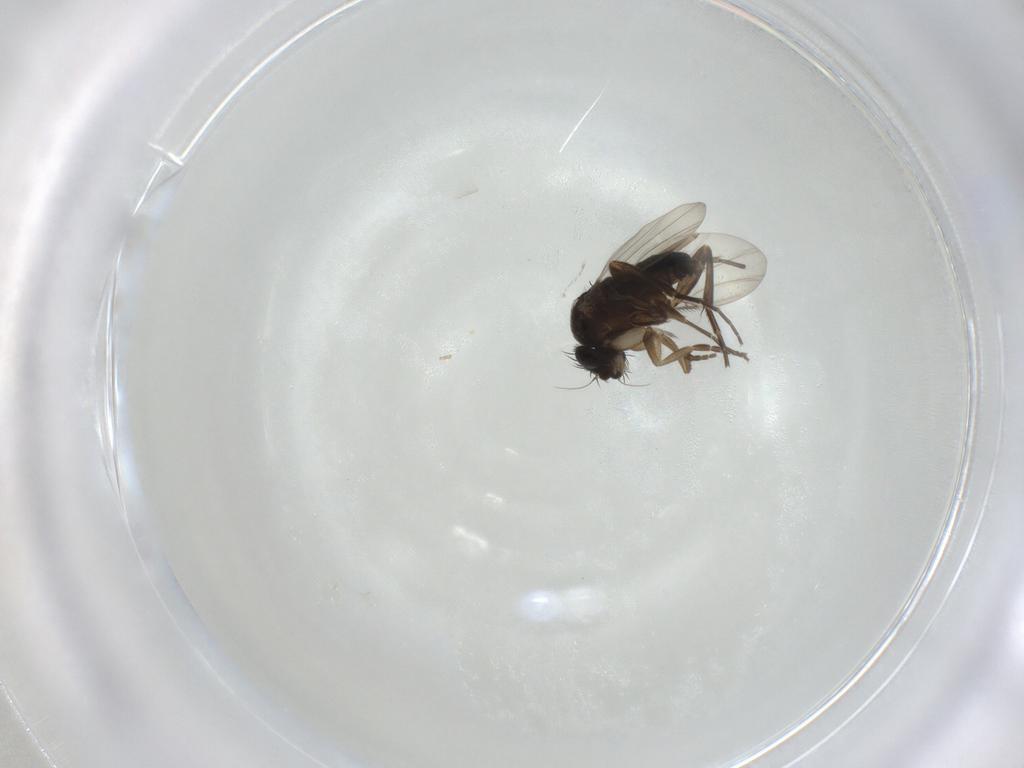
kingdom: Animalia
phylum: Arthropoda
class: Insecta
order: Diptera
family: Phoridae
